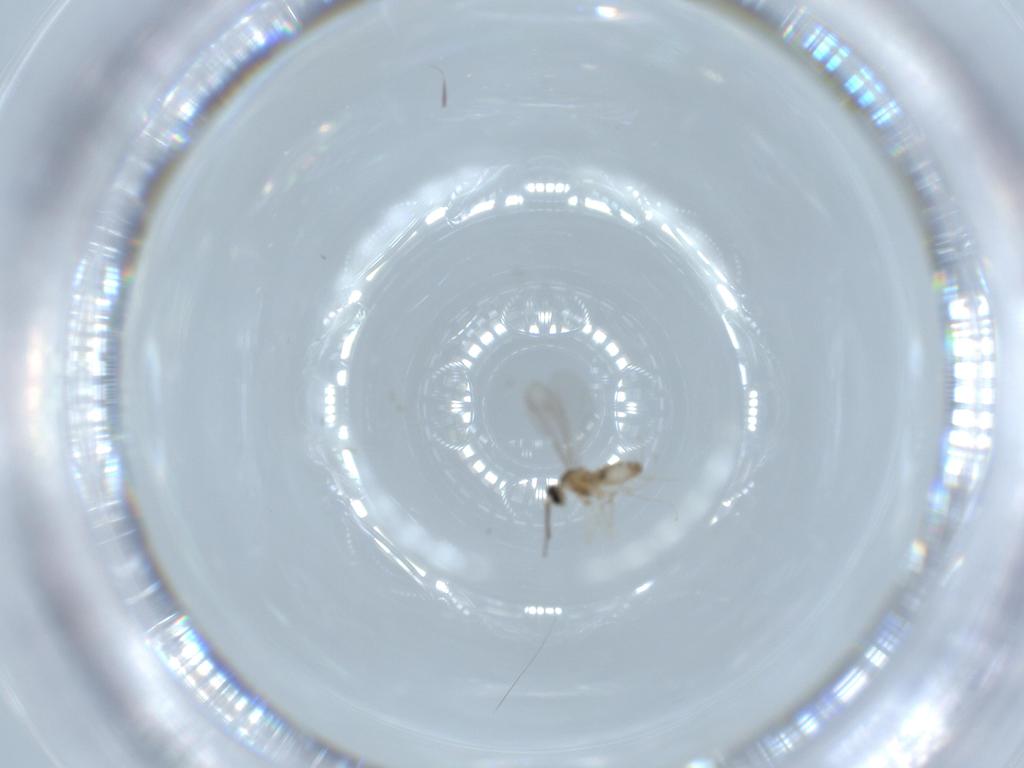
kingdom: Animalia
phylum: Arthropoda
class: Insecta
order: Diptera
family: Cecidomyiidae
